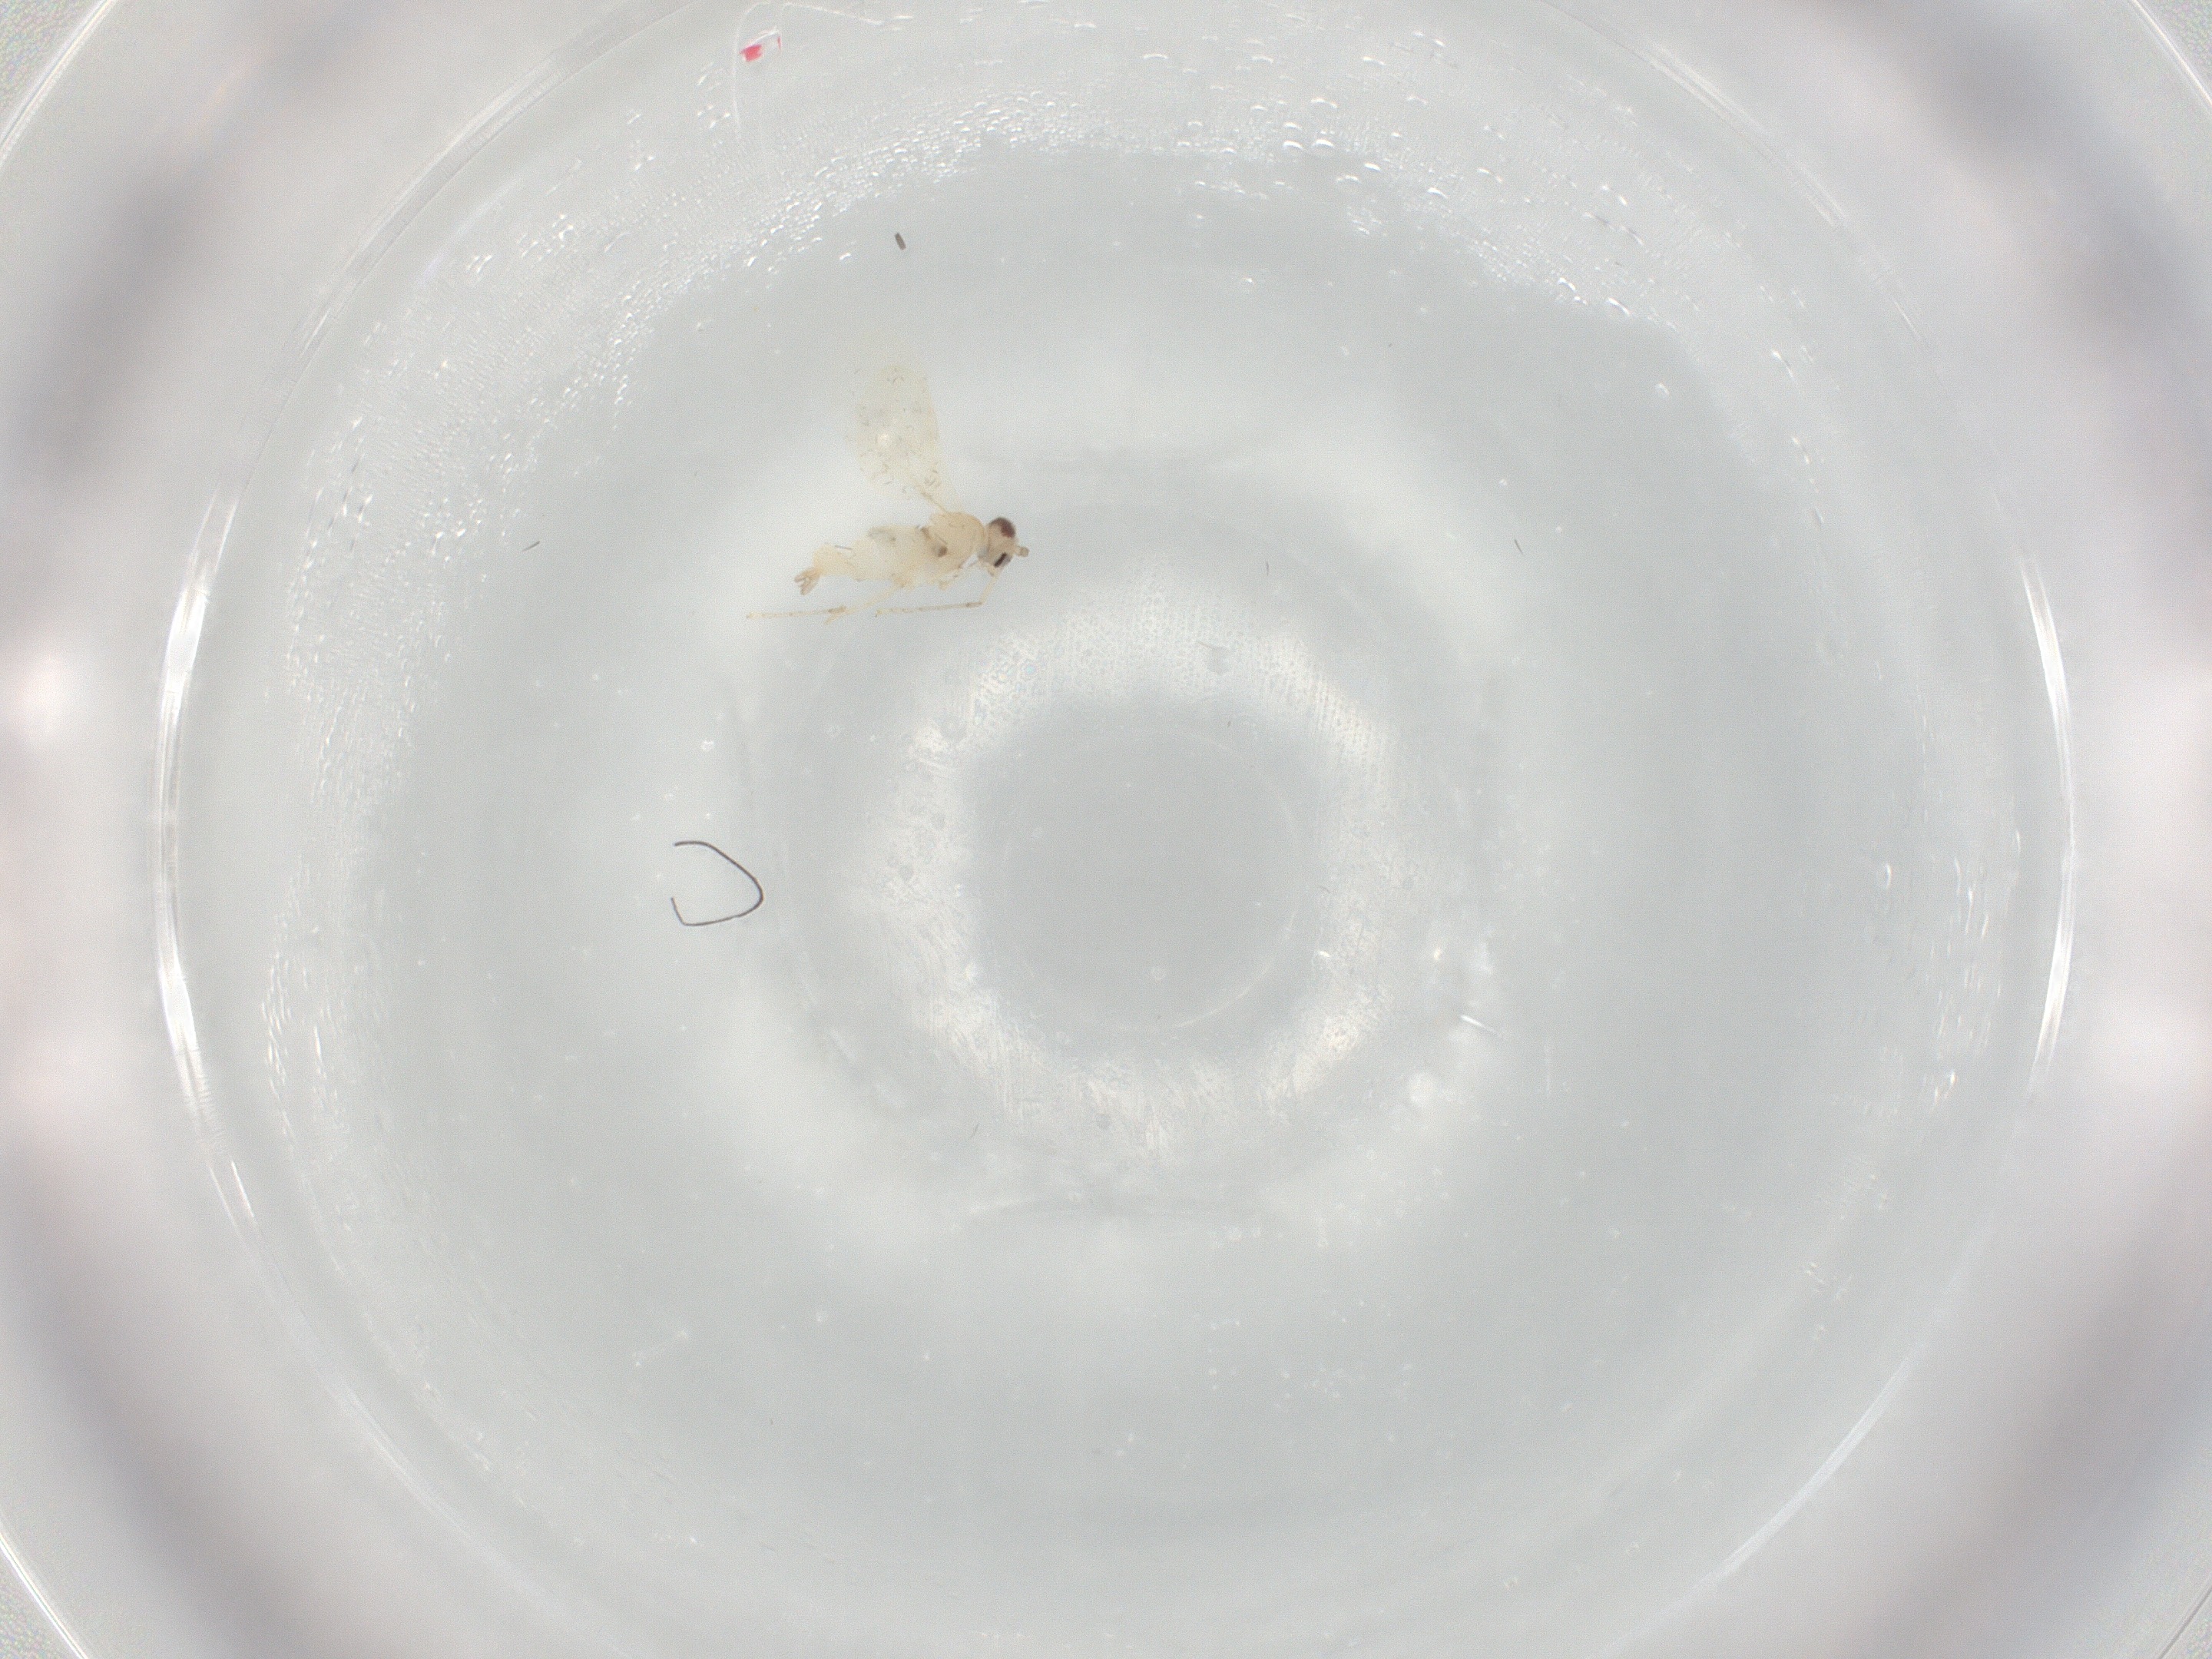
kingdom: Animalia
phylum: Arthropoda
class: Insecta
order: Diptera
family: Cecidomyiidae
